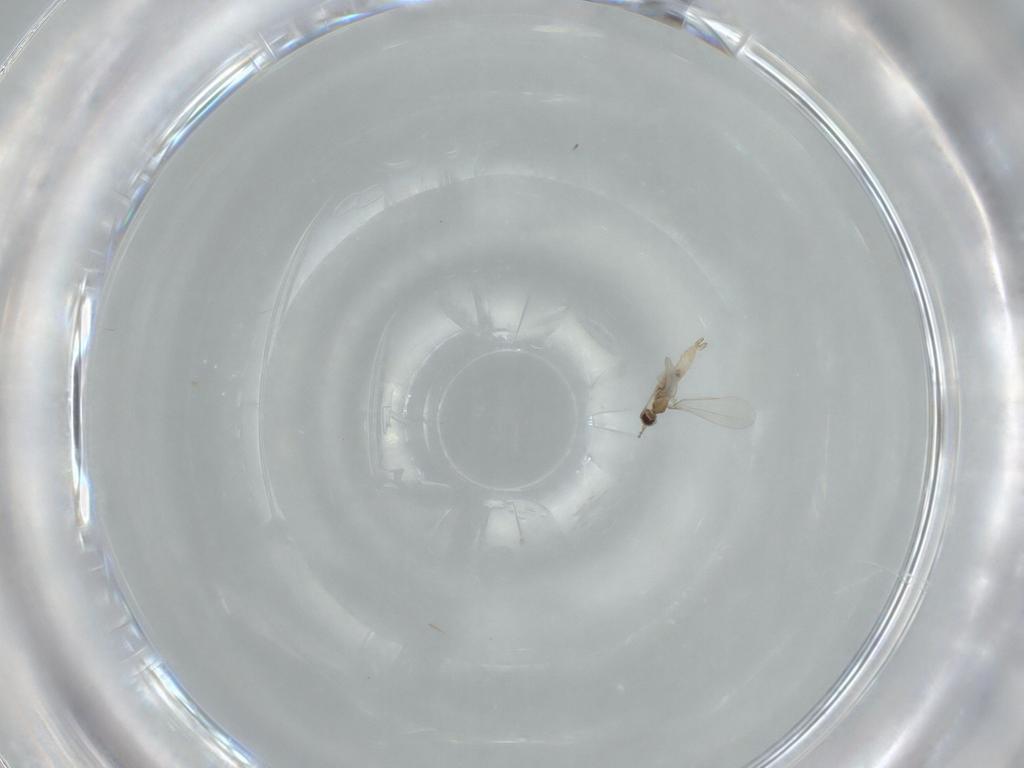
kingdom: Animalia
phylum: Arthropoda
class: Insecta
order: Diptera
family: Cecidomyiidae
